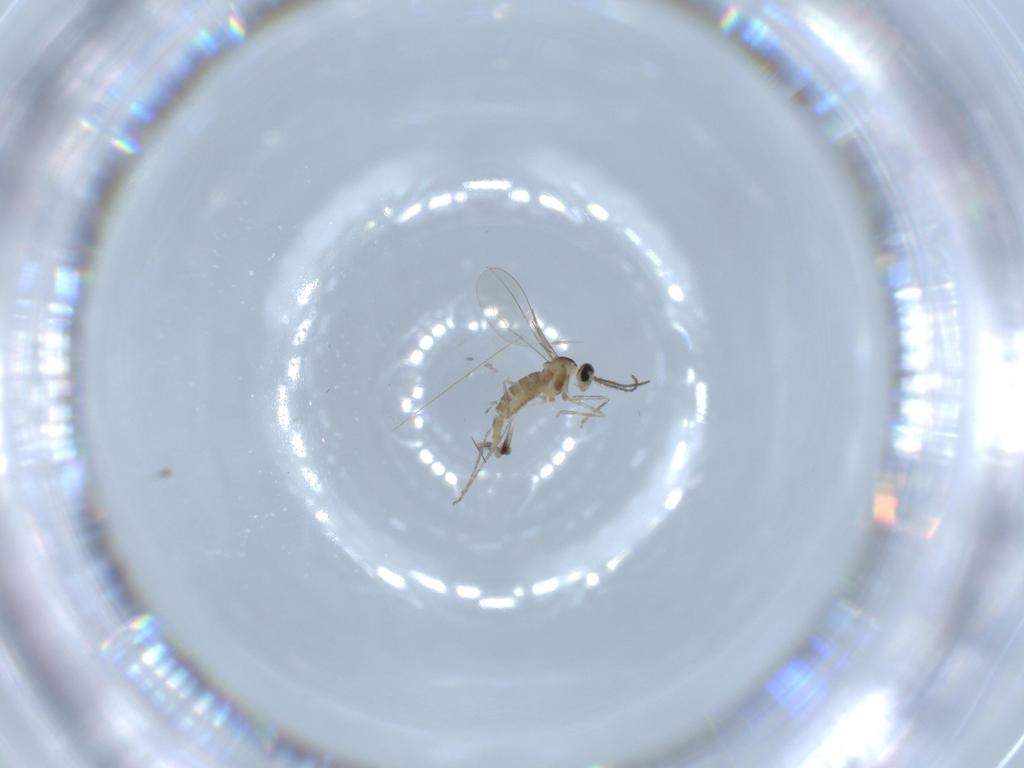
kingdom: Animalia
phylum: Arthropoda
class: Insecta
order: Diptera
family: Cecidomyiidae
